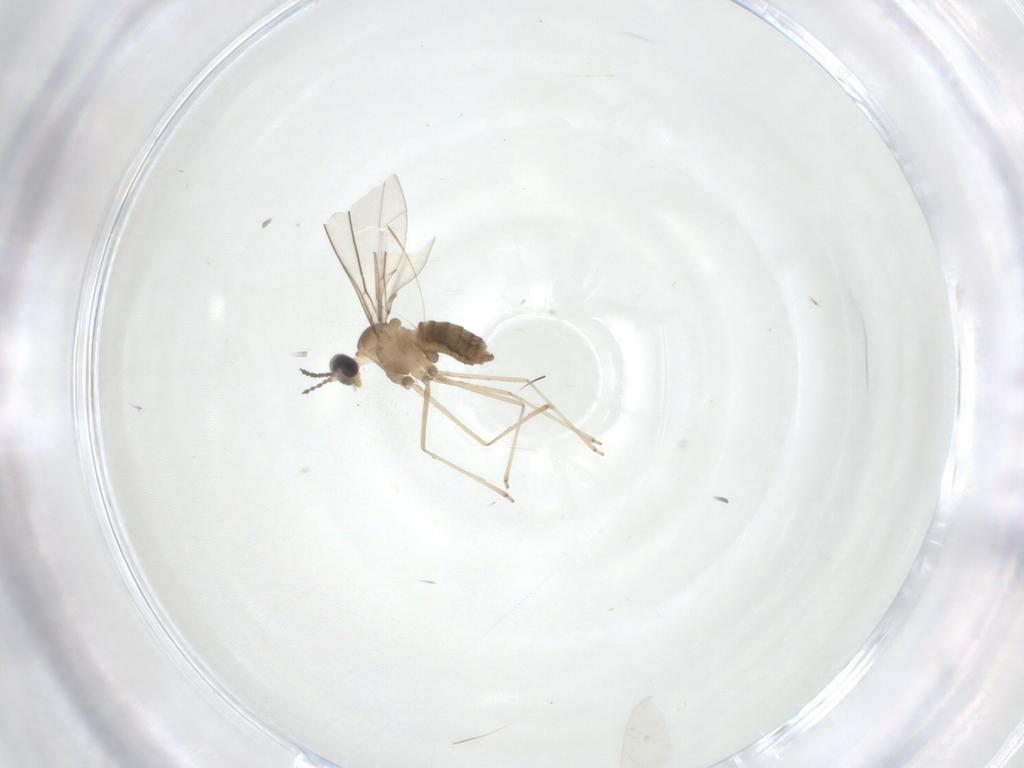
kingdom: Animalia
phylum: Arthropoda
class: Insecta
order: Diptera
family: Cecidomyiidae
